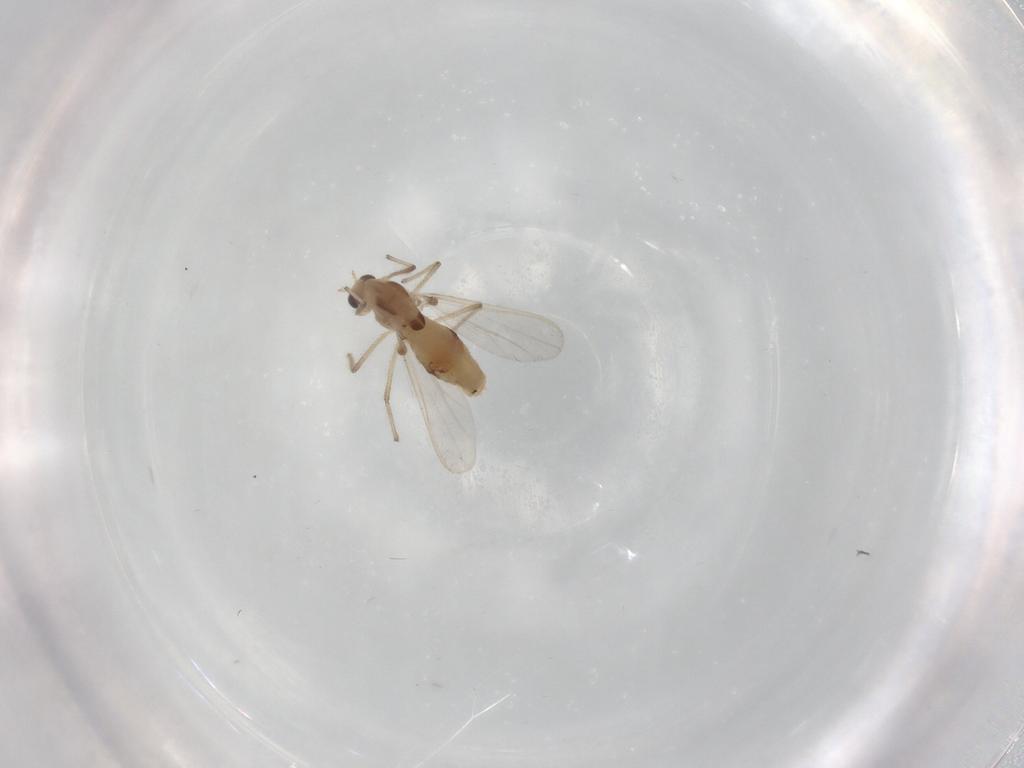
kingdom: Animalia
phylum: Arthropoda
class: Insecta
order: Diptera
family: Chironomidae
